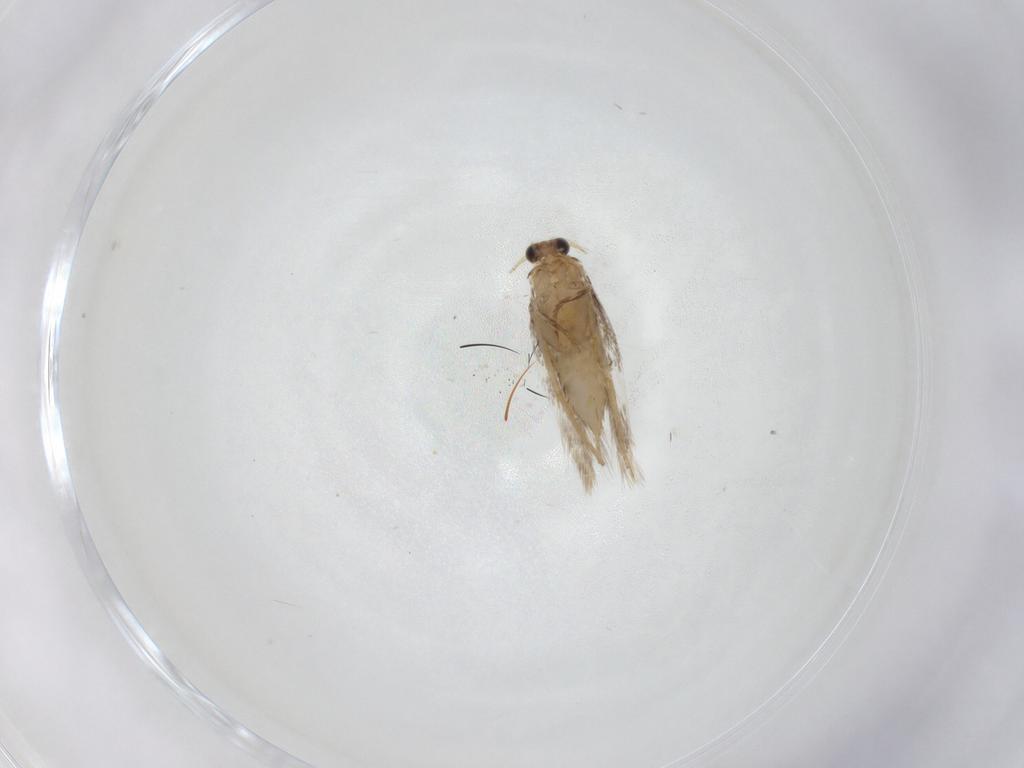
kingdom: Animalia
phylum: Arthropoda
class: Insecta
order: Lepidoptera
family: Nepticulidae
